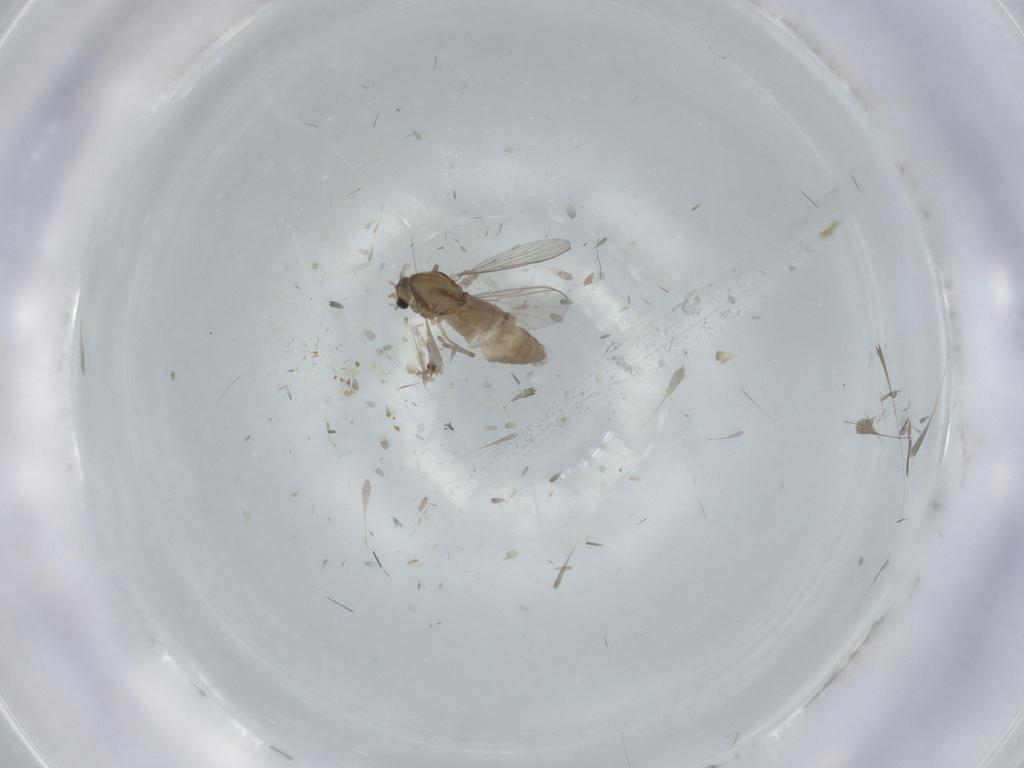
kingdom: Animalia
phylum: Arthropoda
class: Insecta
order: Diptera
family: Chironomidae
